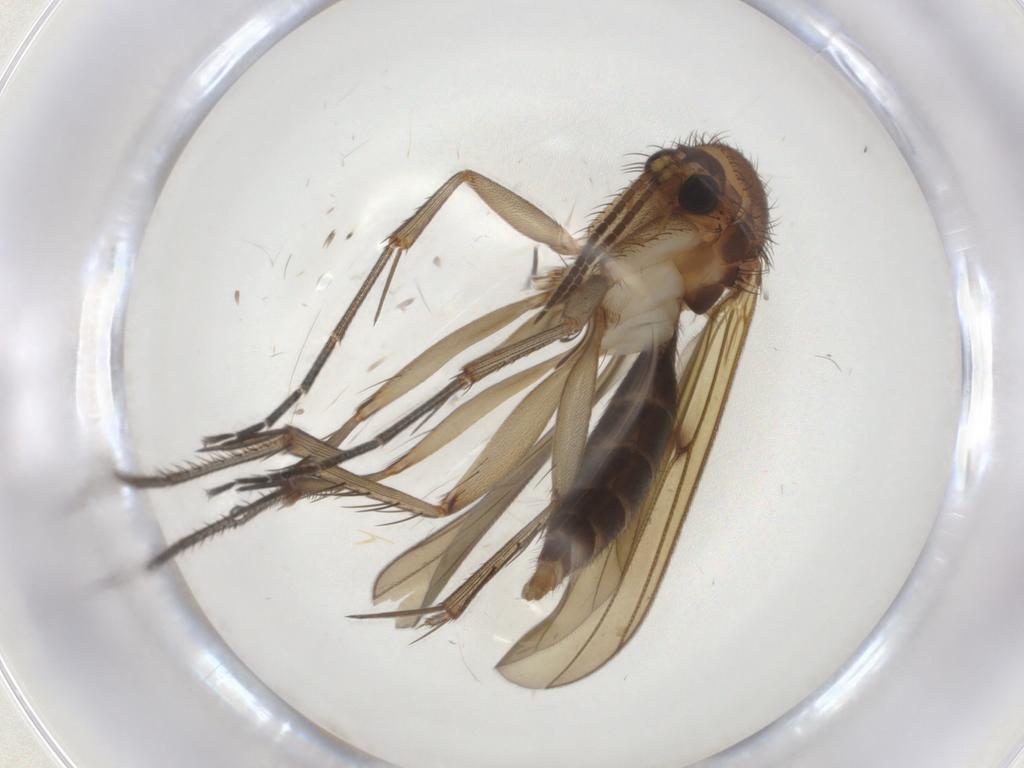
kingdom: Animalia
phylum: Arthropoda
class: Insecta
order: Diptera
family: Mycetophilidae
